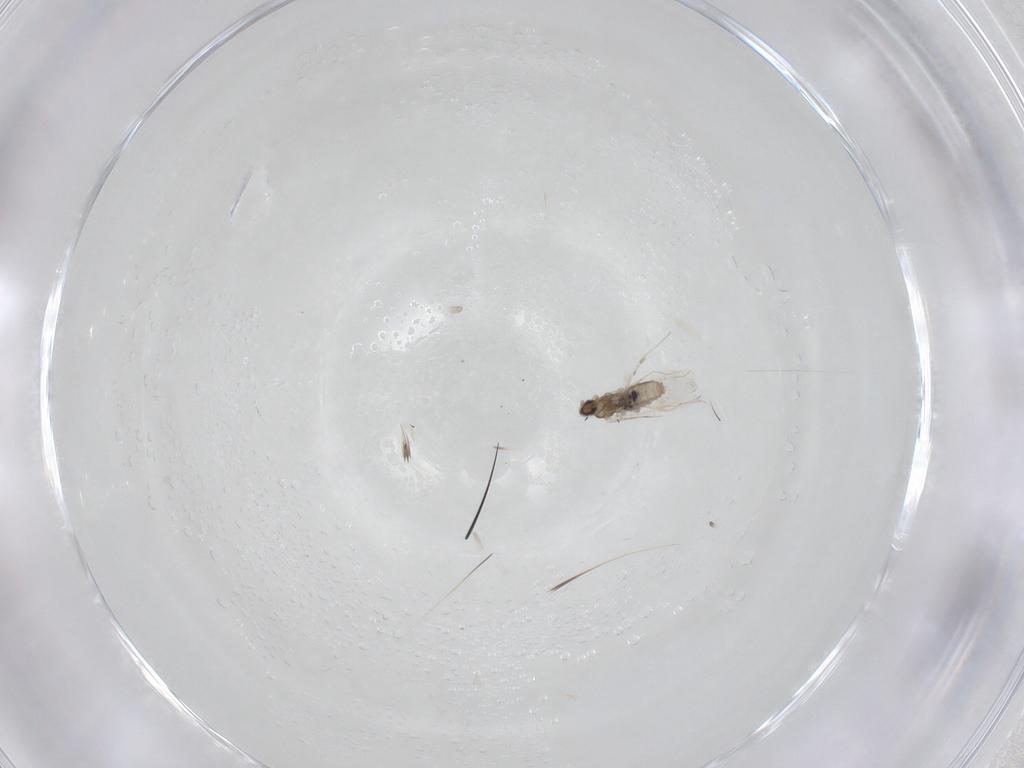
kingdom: Animalia
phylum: Arthropoda
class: Insecta
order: Diptera
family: Cecidomyiidae
